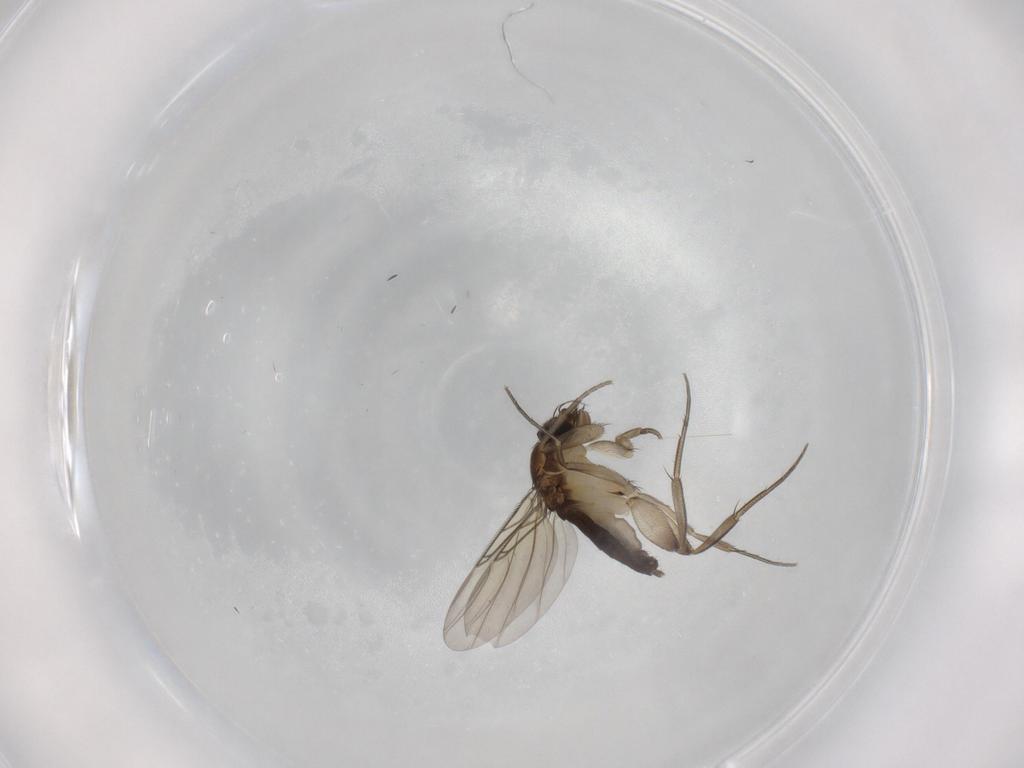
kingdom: Animalia
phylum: Arthropoda
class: Insecta
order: Diptera
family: Phoridae
